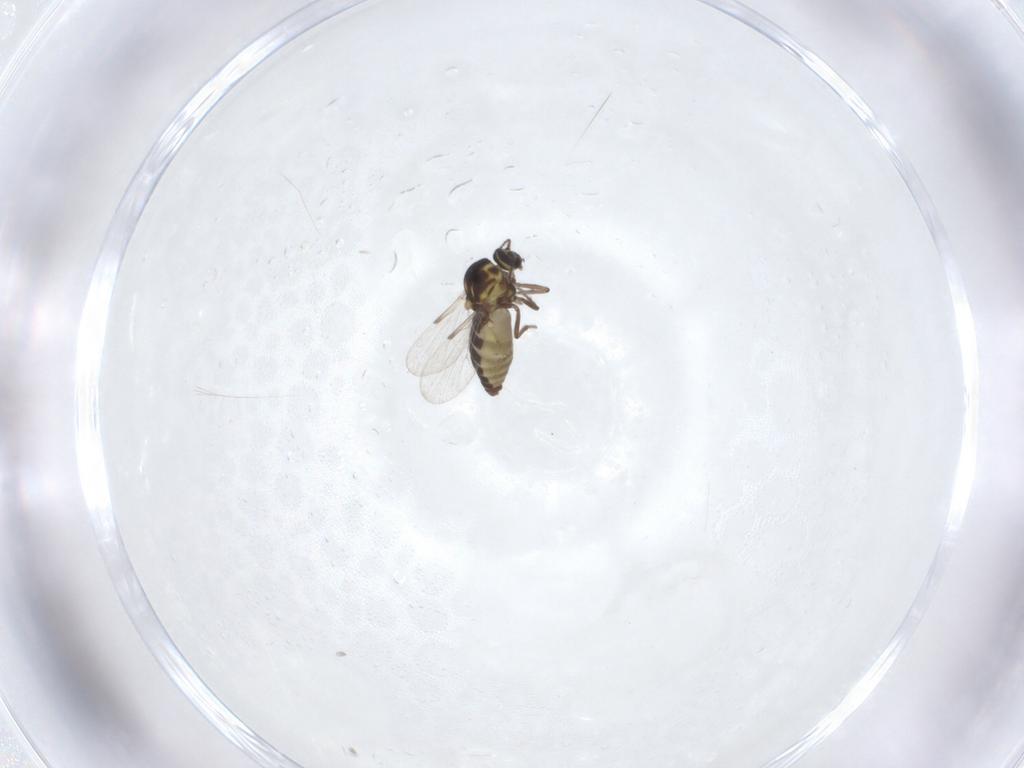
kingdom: Animalia
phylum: Arthropoda
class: Insecta
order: Diptera
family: Ceratopogonidae
